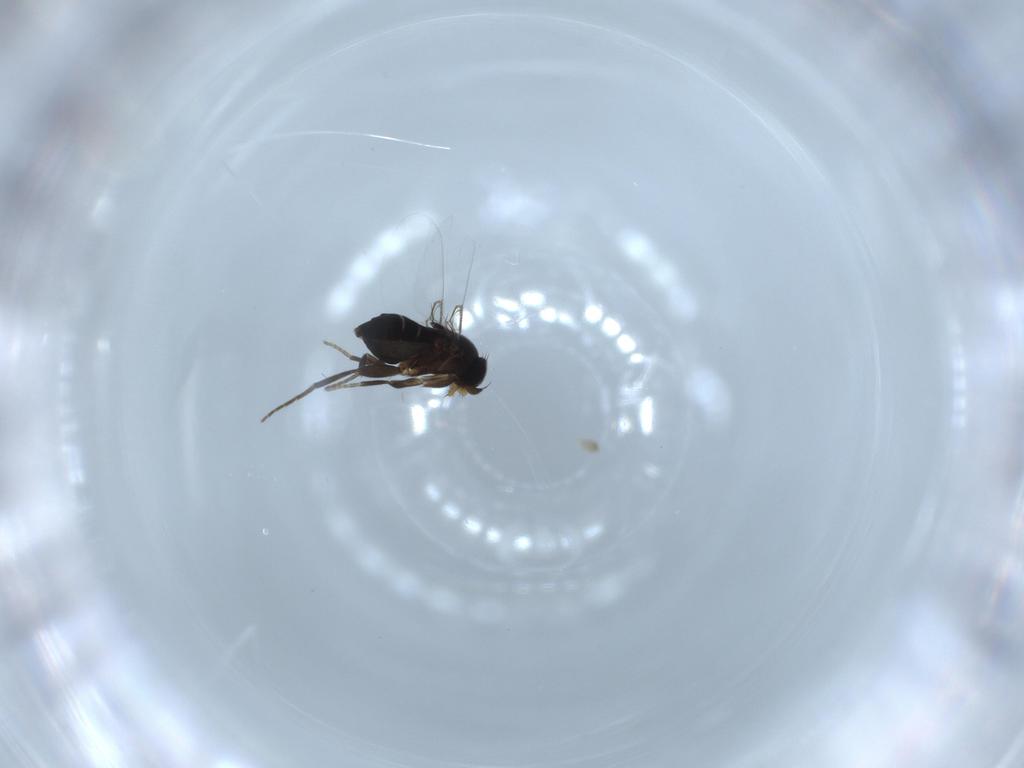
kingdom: Animalia
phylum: Arthropoda
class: Insecta
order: Diptera
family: Phoridae
